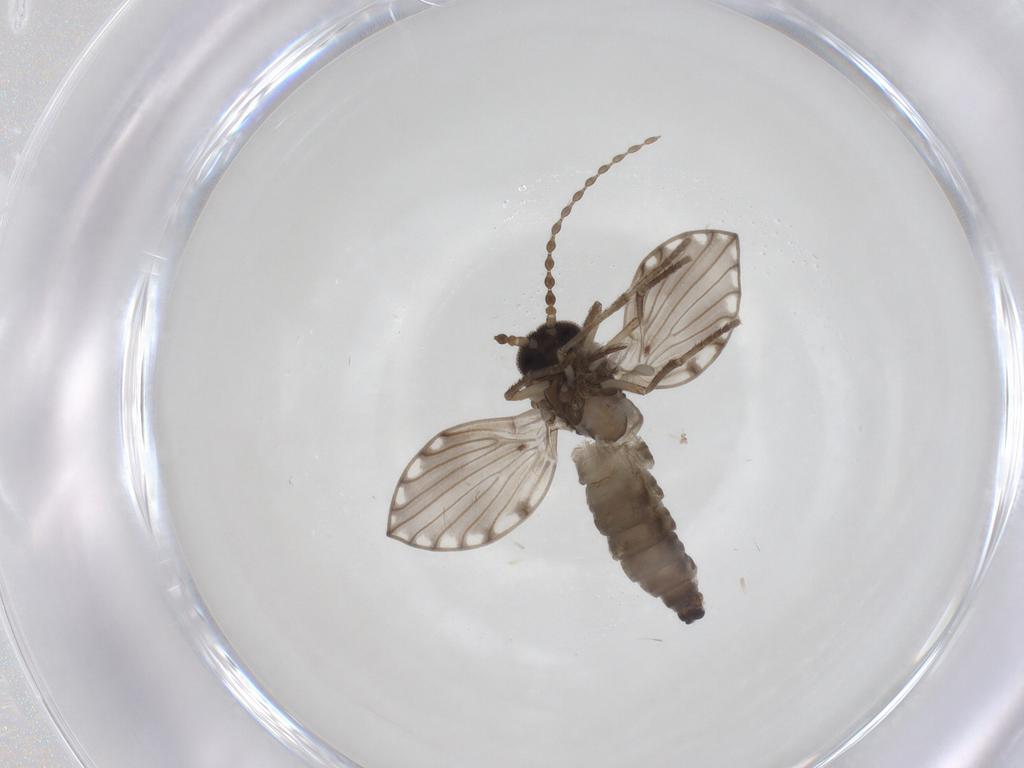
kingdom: Animalia
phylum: Arthropoda
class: Insecta
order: Diptera
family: Psychodidae
